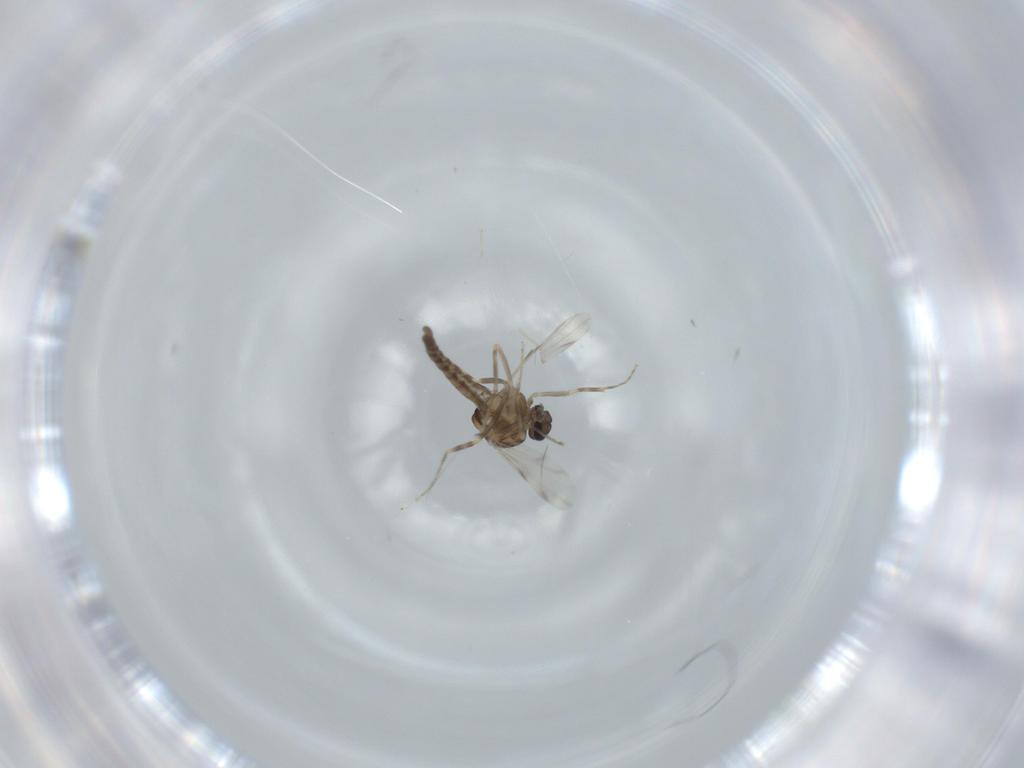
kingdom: Animalia
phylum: Arthropoda
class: Insecta
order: Diptera
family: Ceratopogonidae
